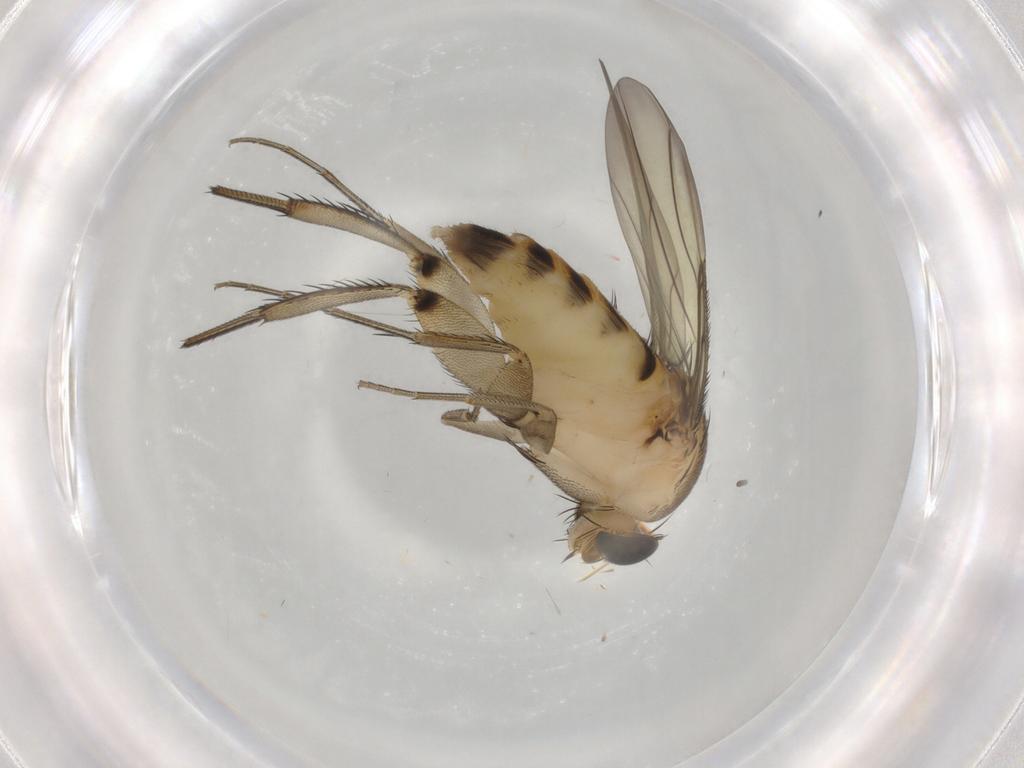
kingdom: Animalia
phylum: Arthropoda
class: Insecta
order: Diptera
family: Phoridae
